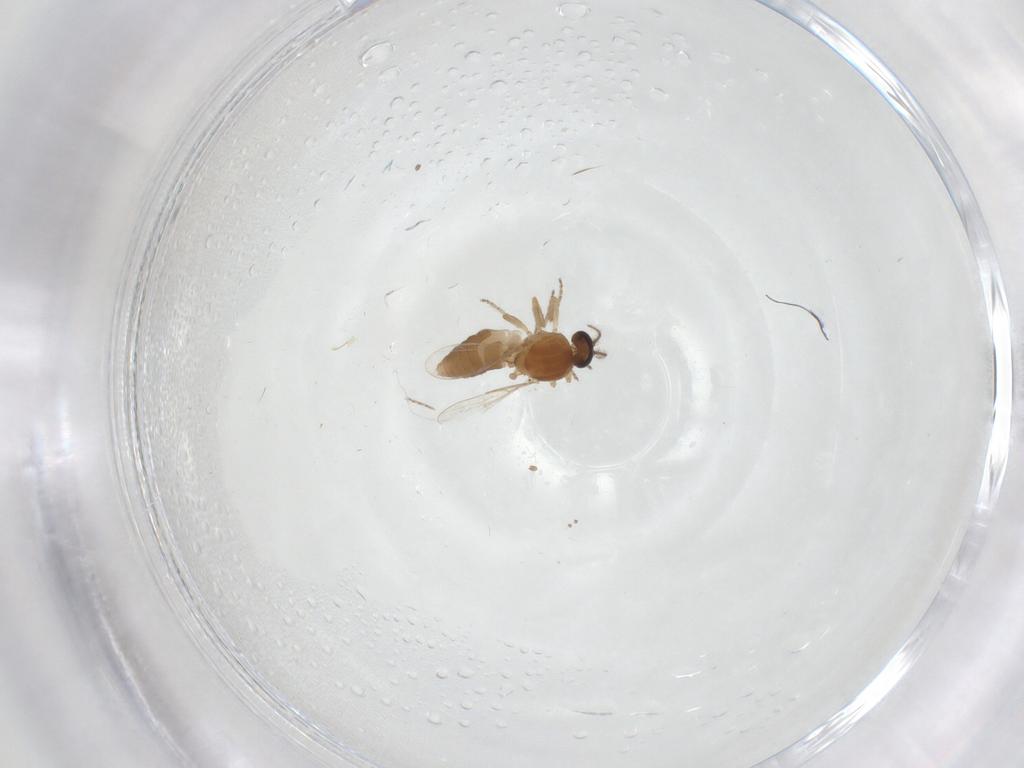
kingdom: Animalia
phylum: Arthropoda
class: Insecta
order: Diptera
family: Ceratopogonidae
